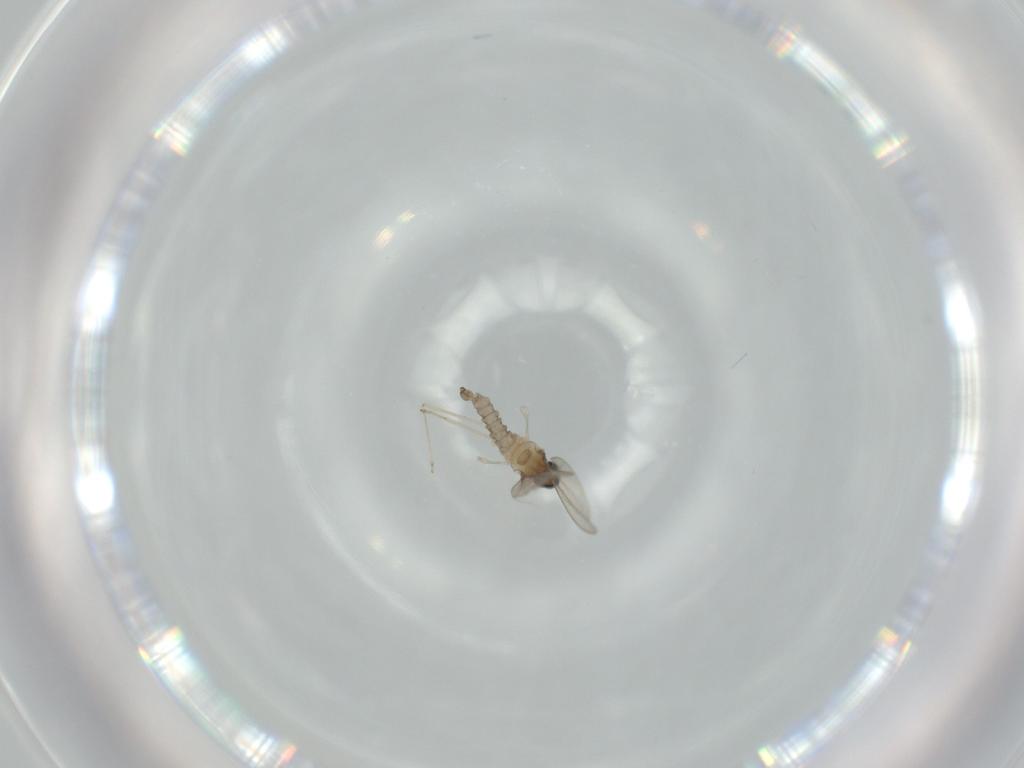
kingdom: Animalia
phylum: Arthropoda
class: Insecta
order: Diptera
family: Cecidomyiidae
